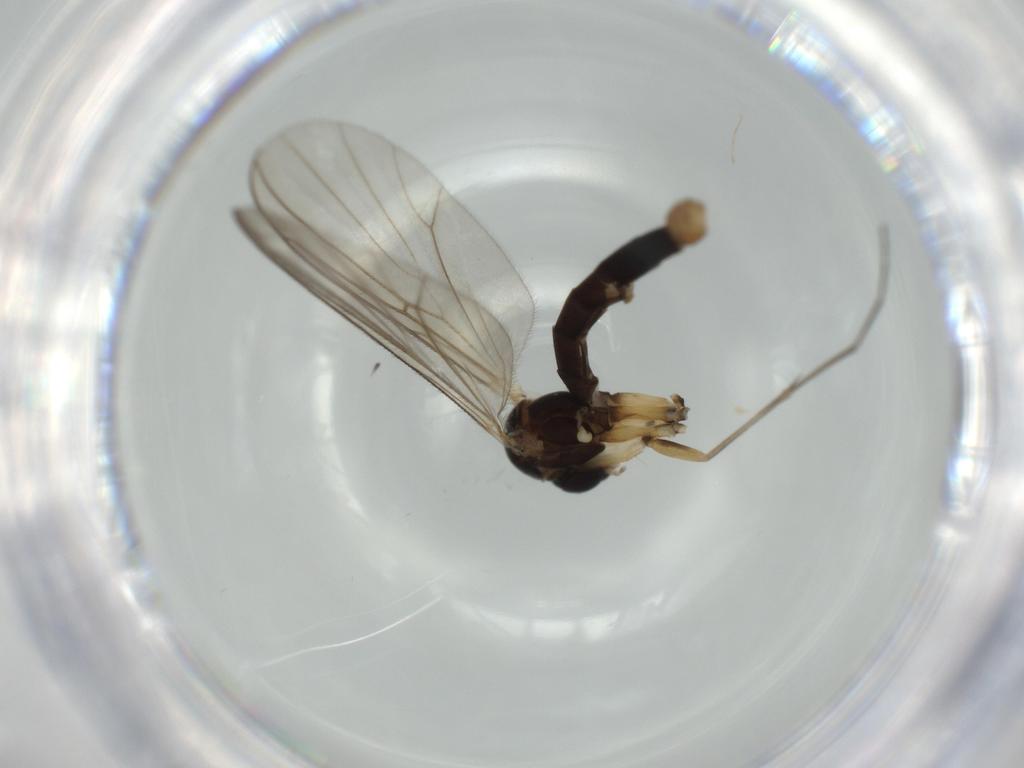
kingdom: Animalia
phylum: Arthropoda
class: Insecta
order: Diptera
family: Phoridae
